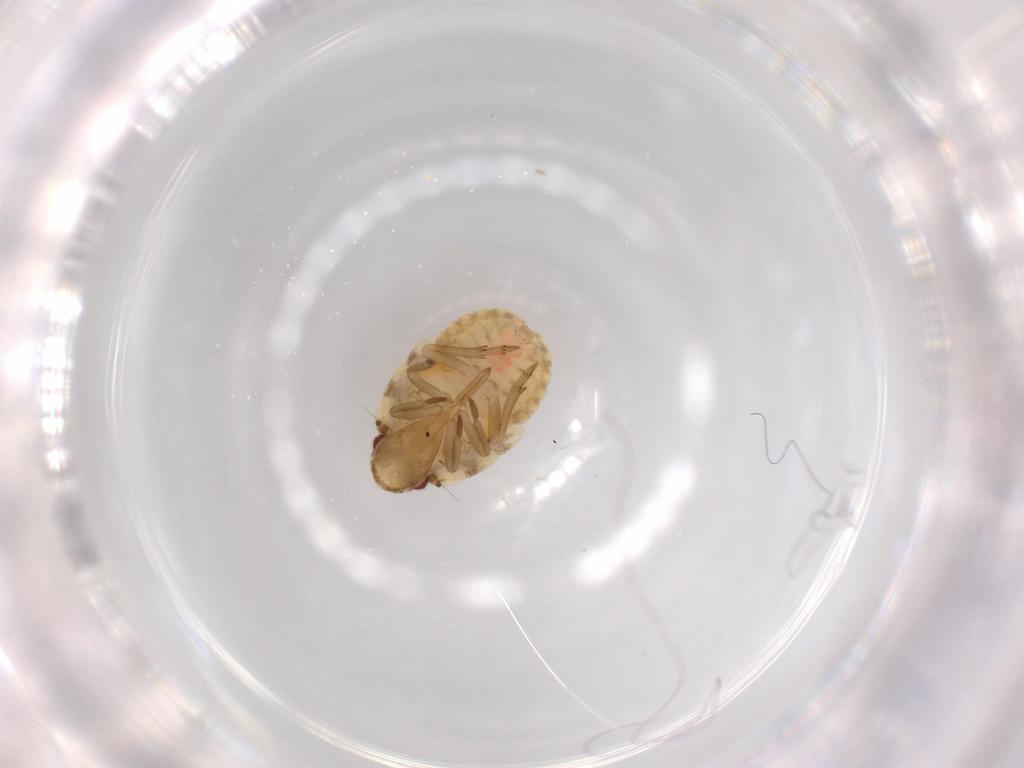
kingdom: Animalia
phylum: Arthropoda
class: Insecta
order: Hemiptera
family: Flatidae
